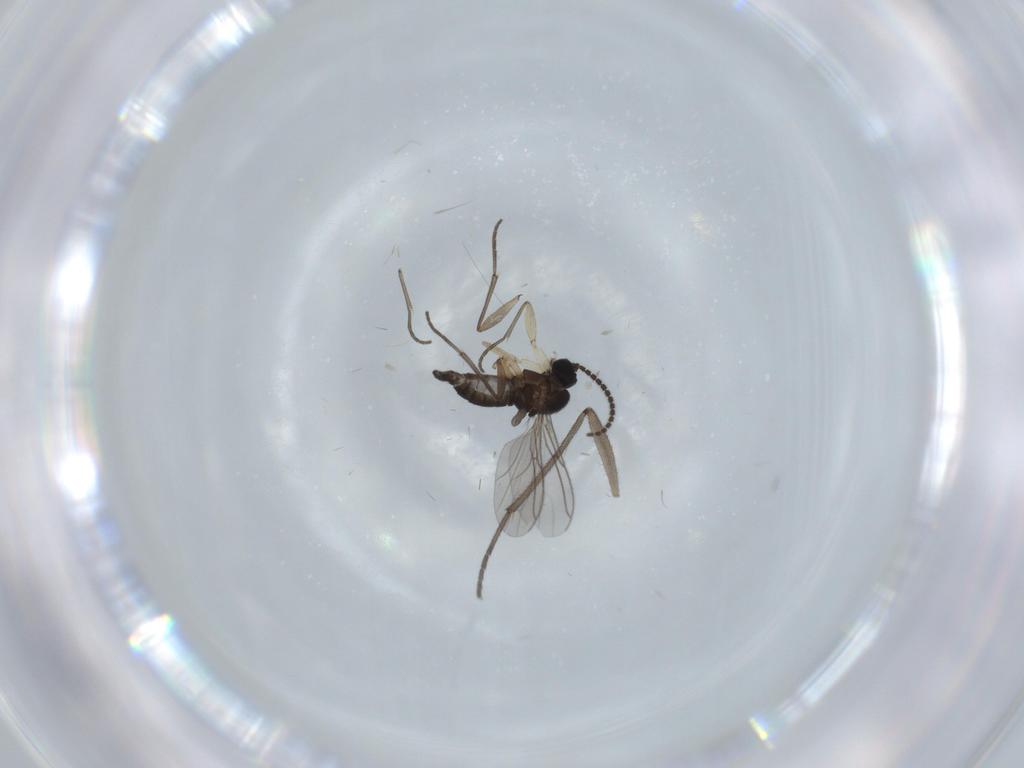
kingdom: Animalia
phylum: Arthropoda
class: Insecta
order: Diptera
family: Sciaridae
